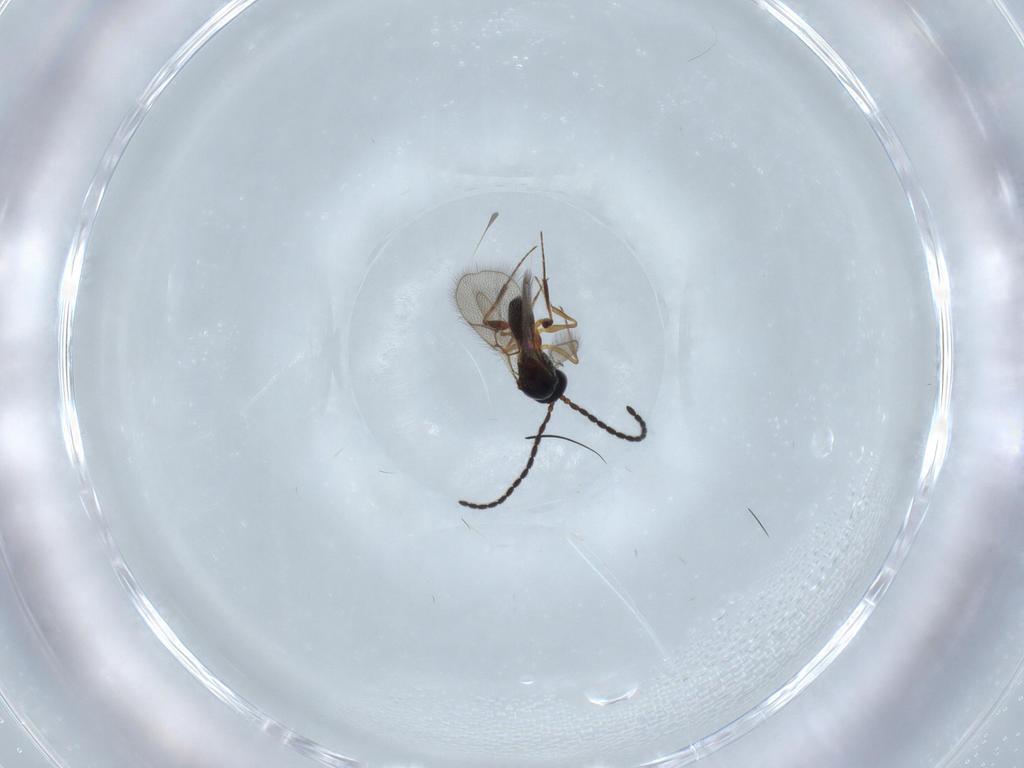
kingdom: Animalia
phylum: Arthropoda
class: Insecta
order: Hymenoptera
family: Figitidae
